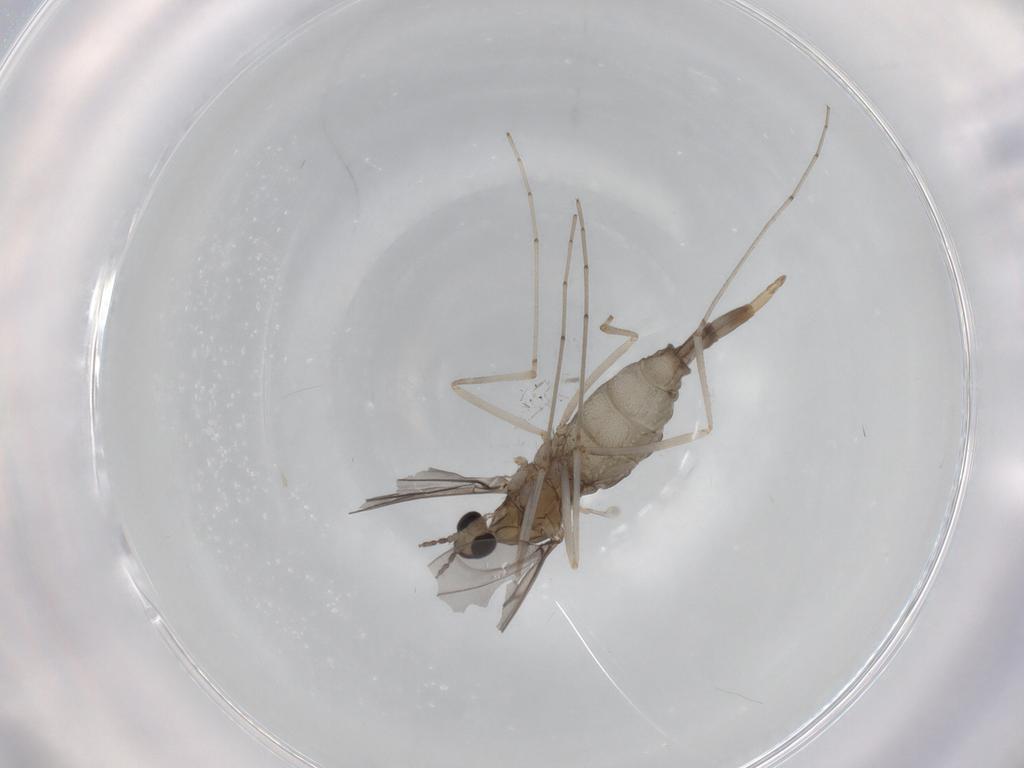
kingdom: Animalia
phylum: Arthropoda
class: Insecta
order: Diptera
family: Cecidomyiidae
